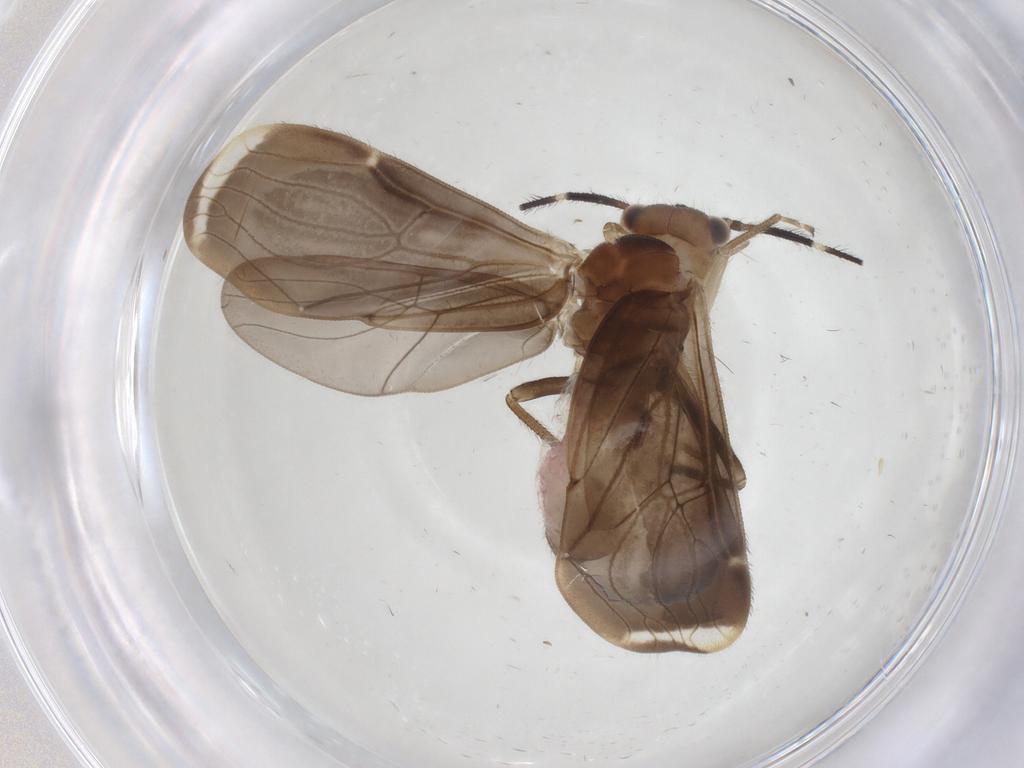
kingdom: Animalia
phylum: Arthropoda
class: Insecta
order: Psocodea
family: Amphipsocidae
